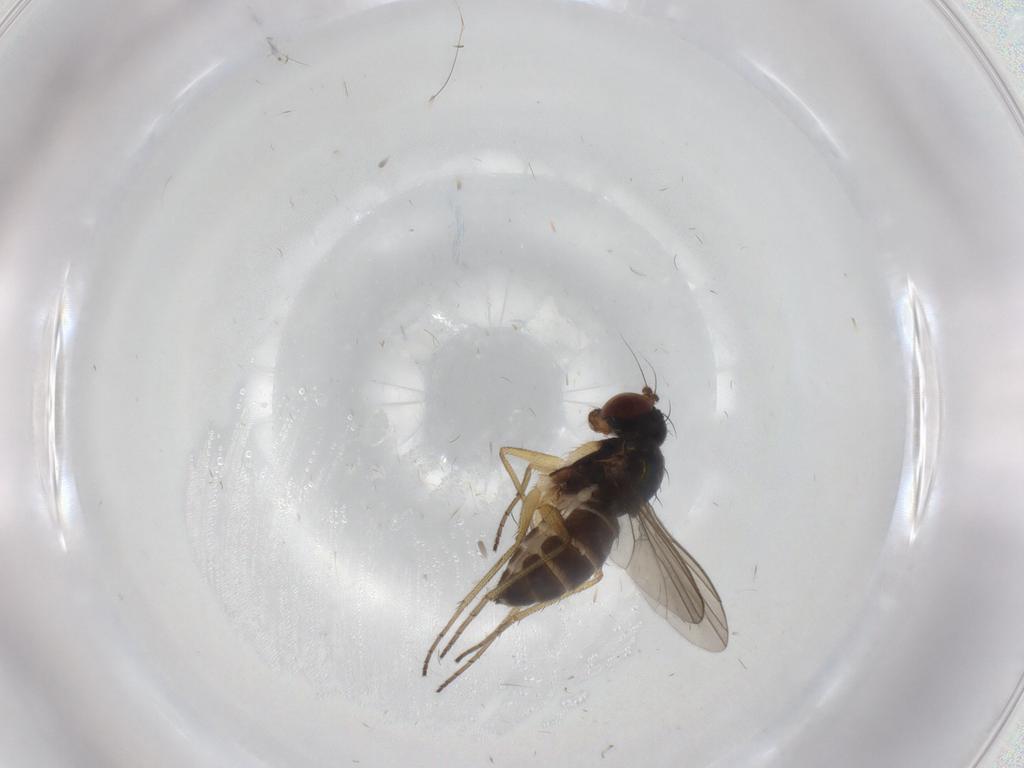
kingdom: Animalia
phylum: Arthropoda
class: Insecta
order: Diptera
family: Dolichopodidae
